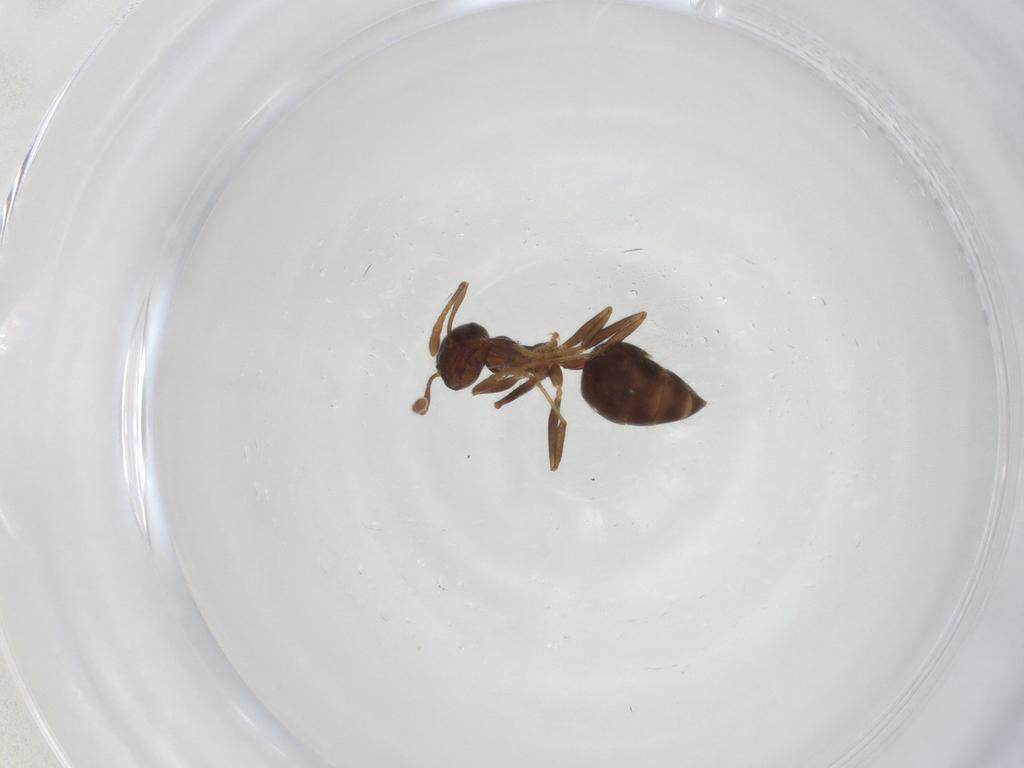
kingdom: Animalia
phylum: Arthropoda
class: Insecta
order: Hymenoptera
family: Formicidae
